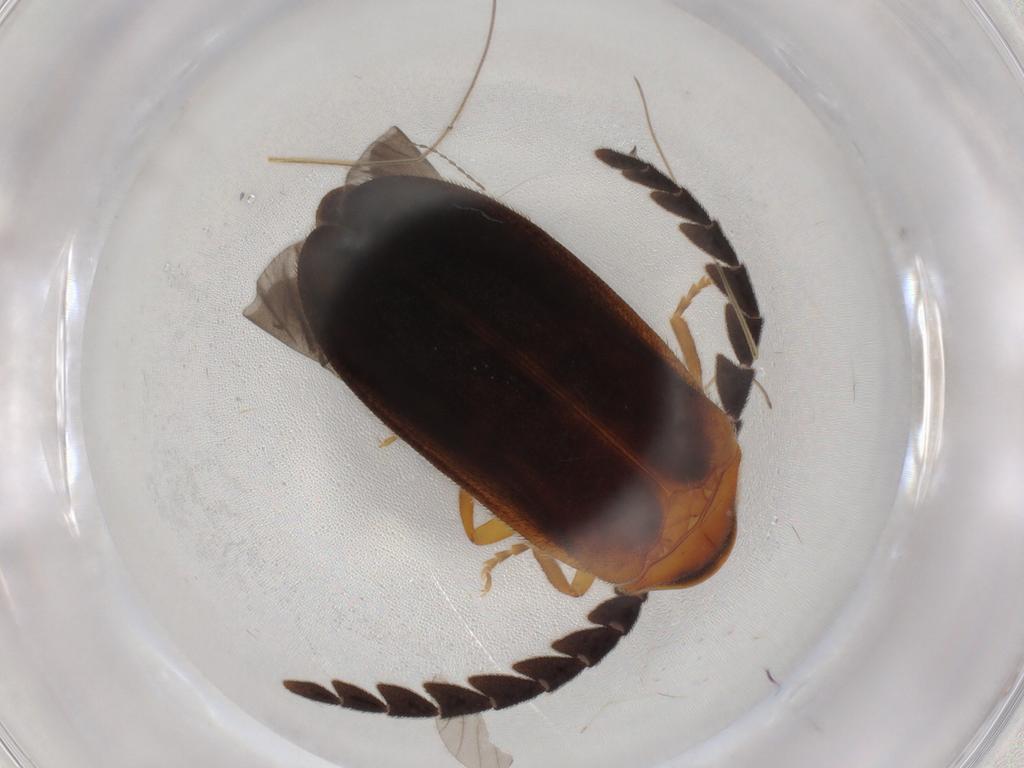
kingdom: Animalia
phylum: Arthropoda
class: Insecta
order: Coleoptera
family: Lampyridae
